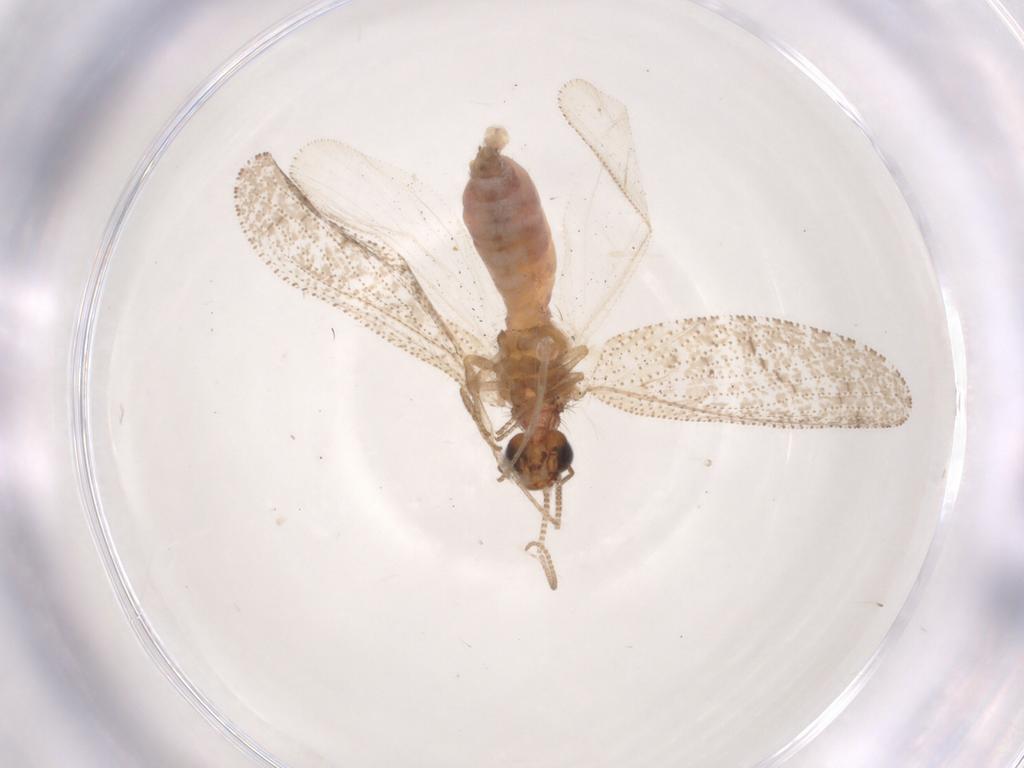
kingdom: Animalia
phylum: Arthropoda
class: Insecta
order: Neuroptera
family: Hemerobiidae
